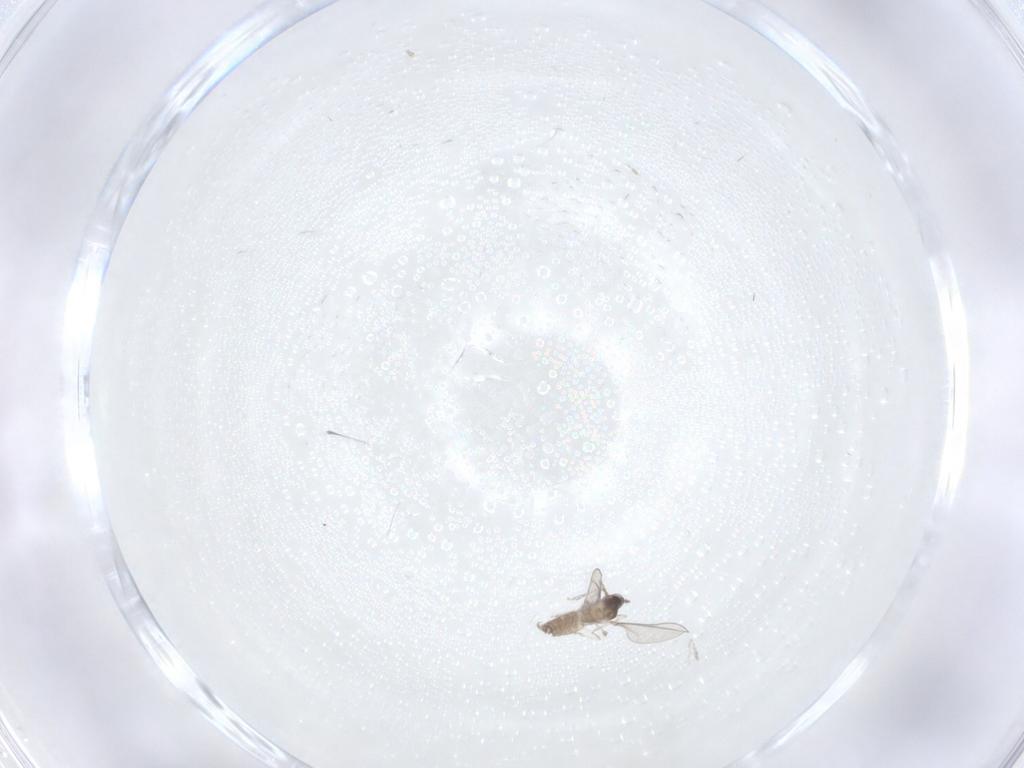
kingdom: Animalia
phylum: Arthropoda
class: Insecta
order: Diptera
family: Cecidomyiidae
